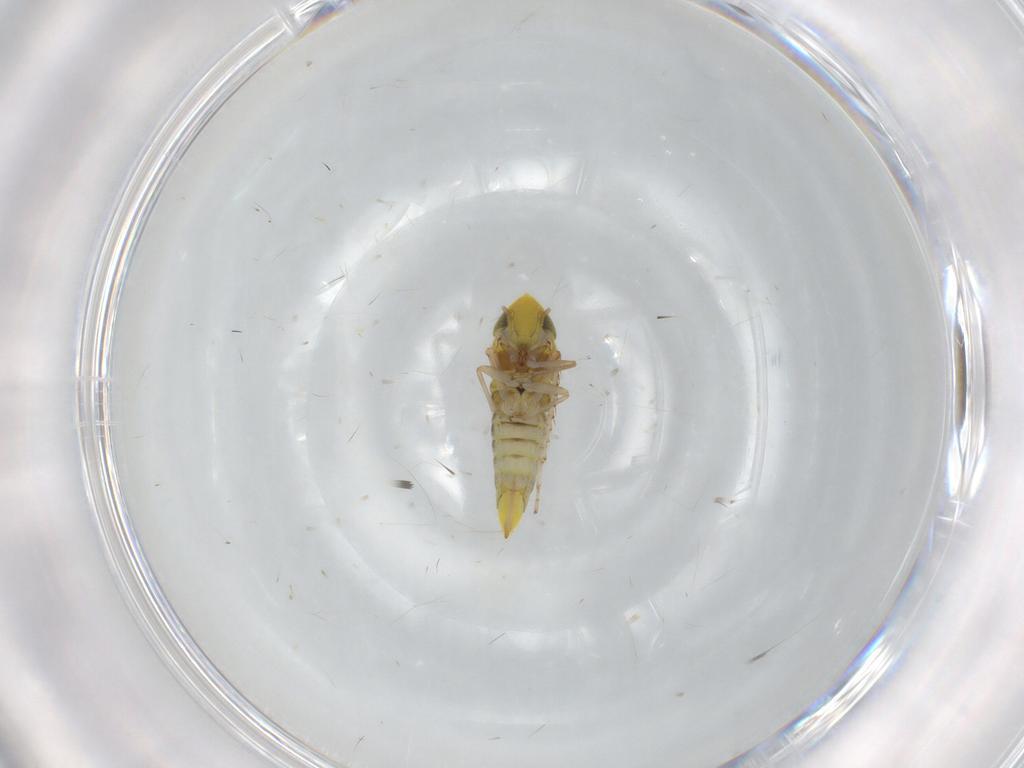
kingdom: Animalia
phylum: Arthropoda
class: Insecta
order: Hemiptera
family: Cicadellidae
